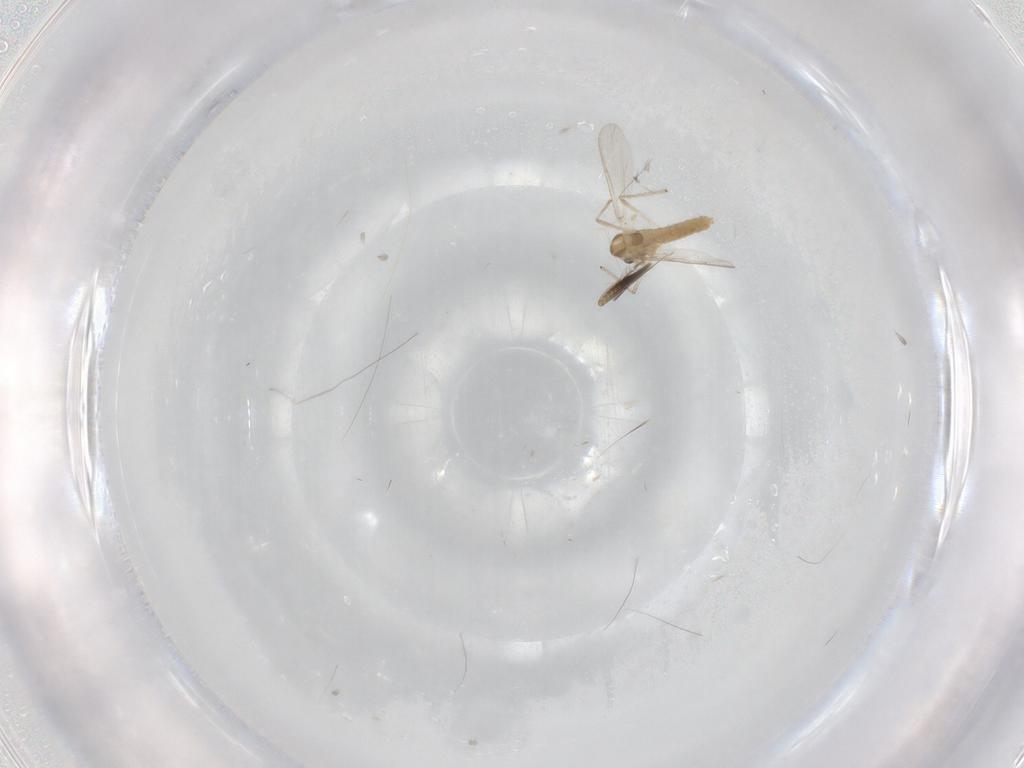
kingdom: Animalia
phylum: Arthropoda
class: Insecta
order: Diptera
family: Ceratopogonidae
